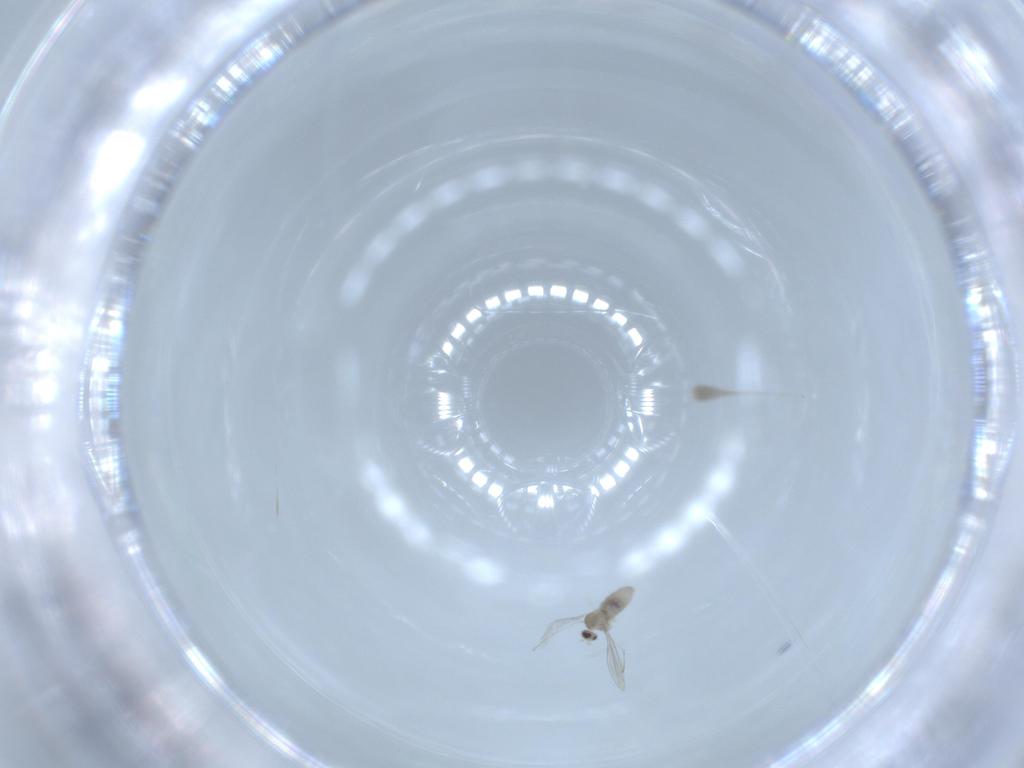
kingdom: Animalia
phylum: Arthropoda
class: Insecta
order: Diptera
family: Cecidomyiidae
